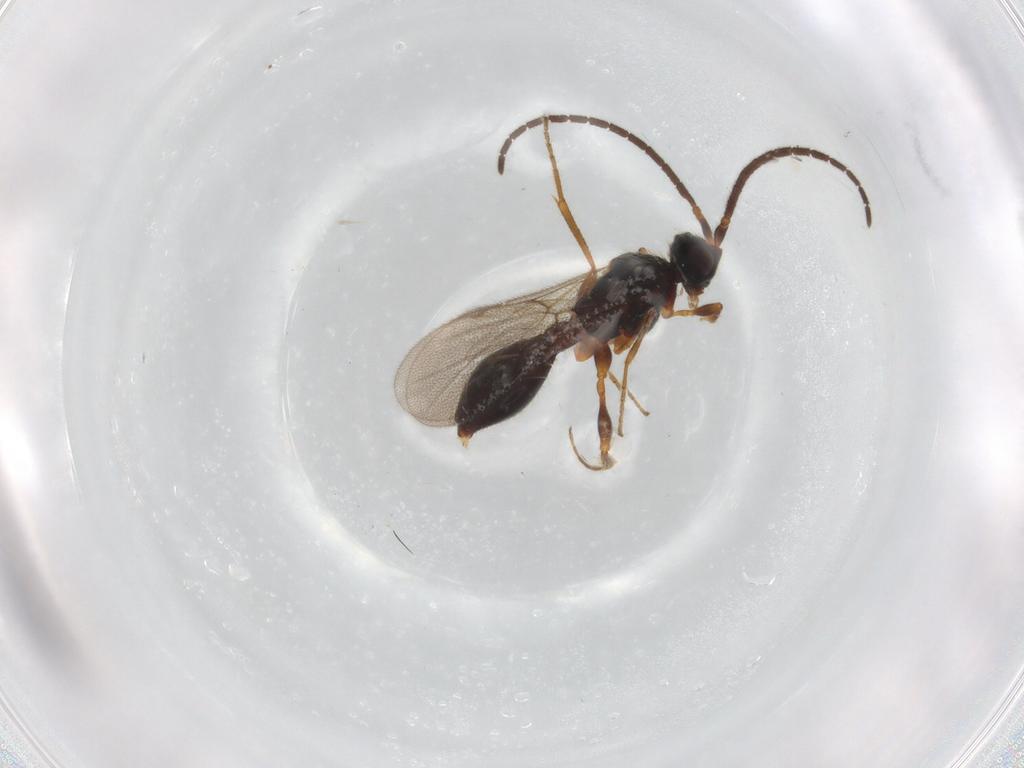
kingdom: Animalia
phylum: Arthropoda
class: Insecta
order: Hymenoptera
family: Diapriidae
